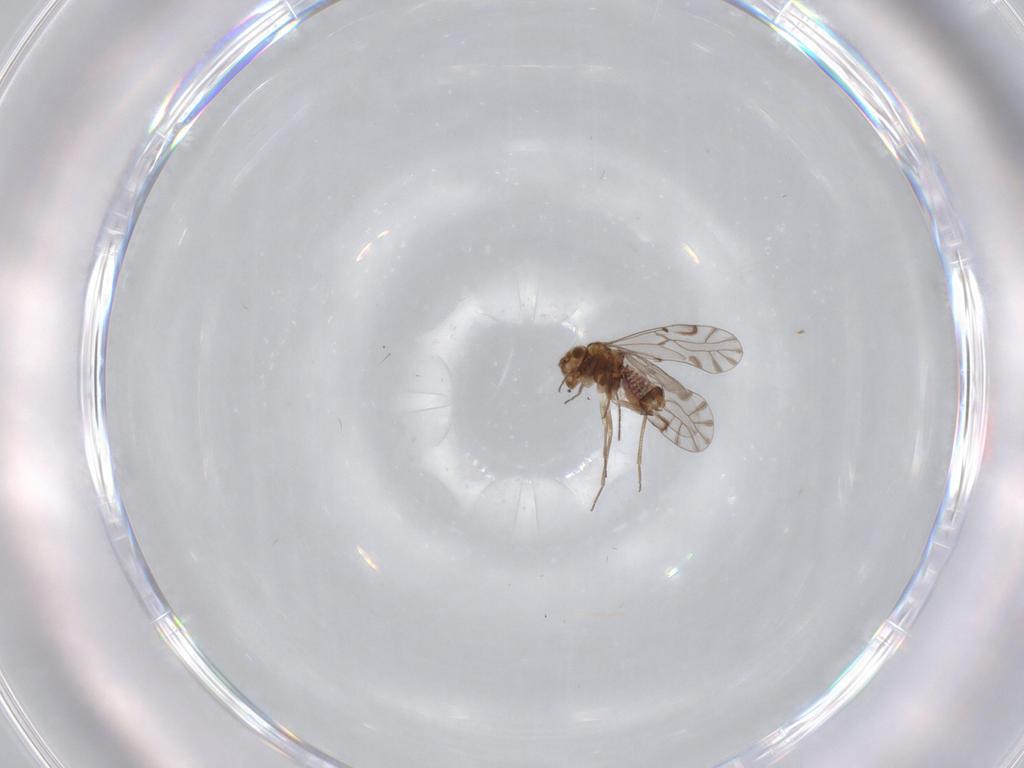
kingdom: Animalia
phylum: Arthropoda
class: Insecta
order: Psocodea
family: Lachesillidae
